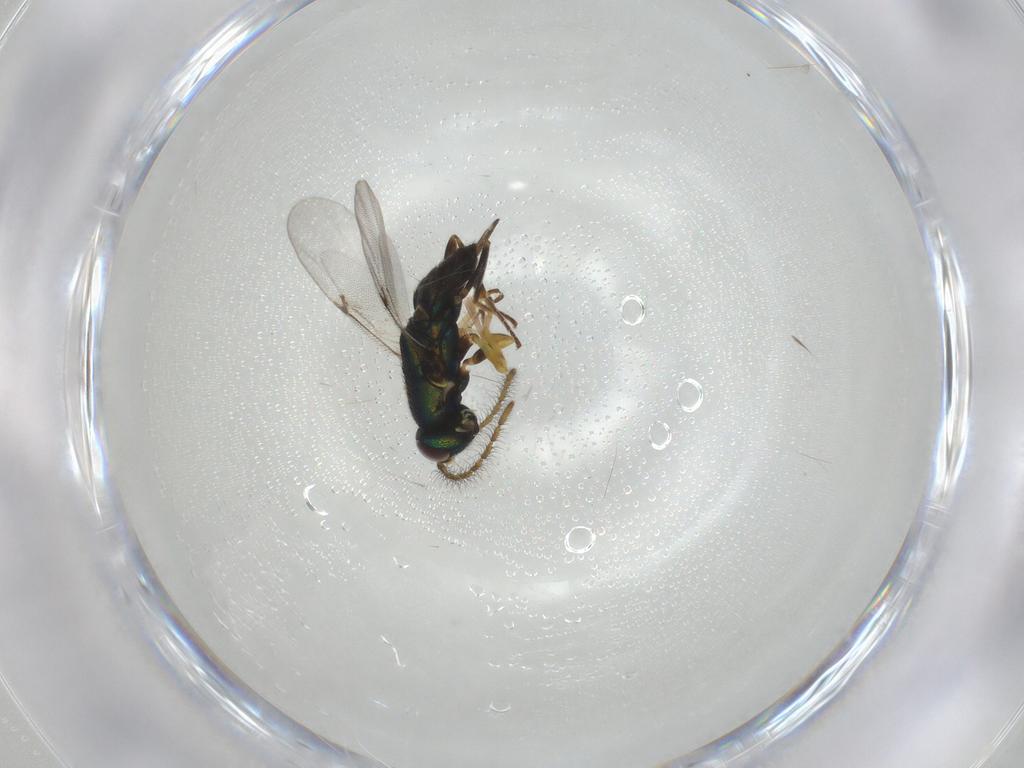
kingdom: Animalia
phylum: Arthropoda
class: Insecta
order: Hymenoptera
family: Encyrtidae
